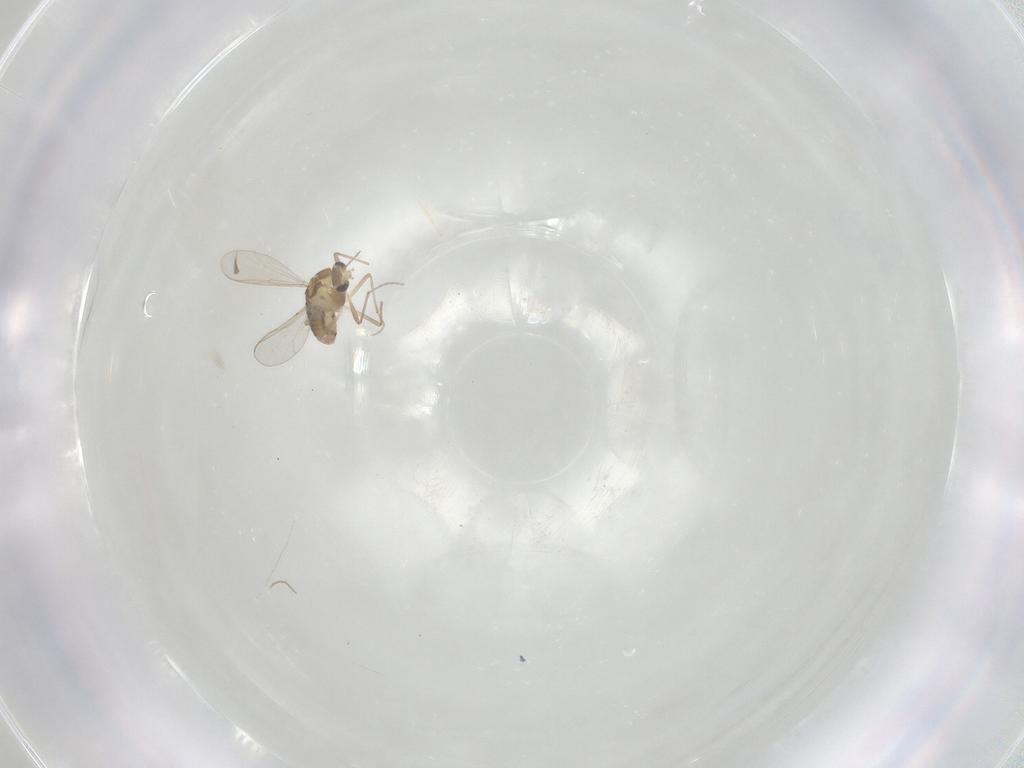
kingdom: Animalia
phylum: Arthropoda
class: Insecta
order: Diptera
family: Chironomidae
